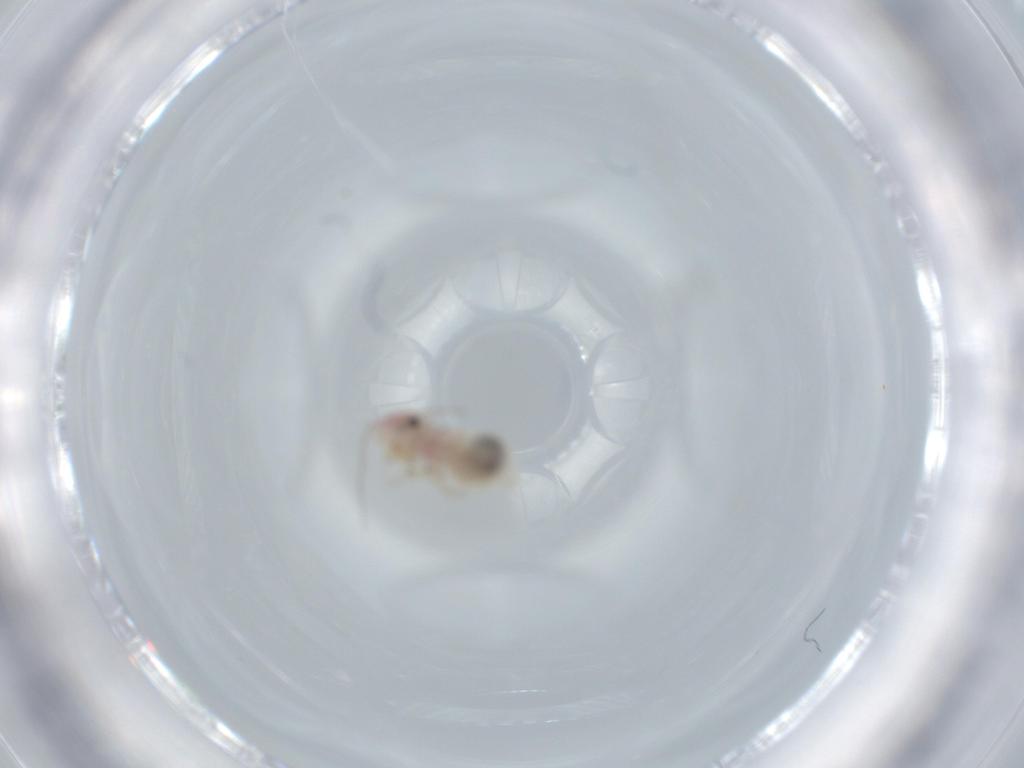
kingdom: Animalia
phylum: Arthropoda
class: Insecta
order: Psocodea
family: Amphipsocidae
